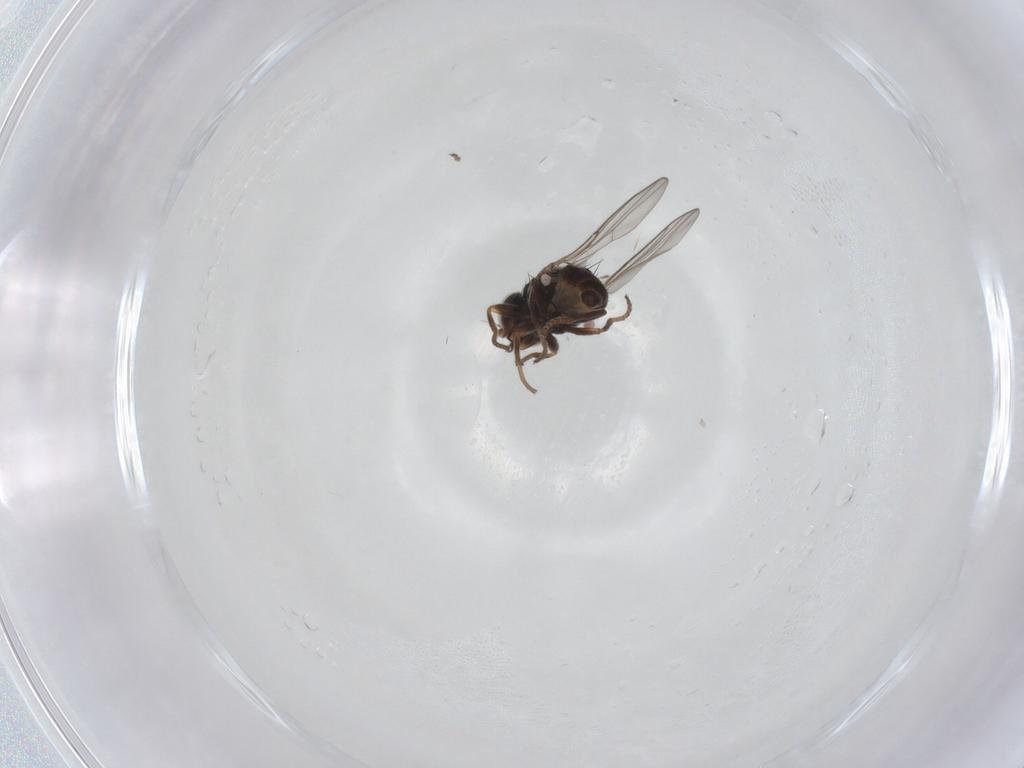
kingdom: Animalia
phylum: Arthropoda
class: Insecta
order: Diptera
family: Chloropidae
